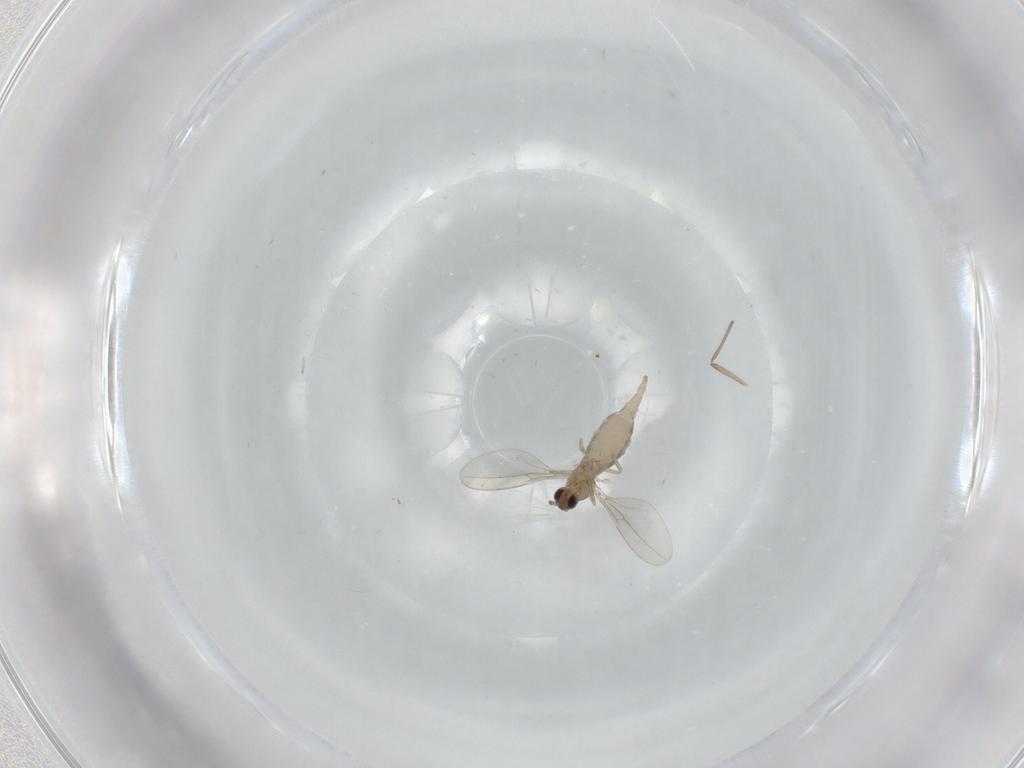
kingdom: Animalia
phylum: Arthropoda
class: Insecta
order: Diptera
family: Cecidomyiidae
